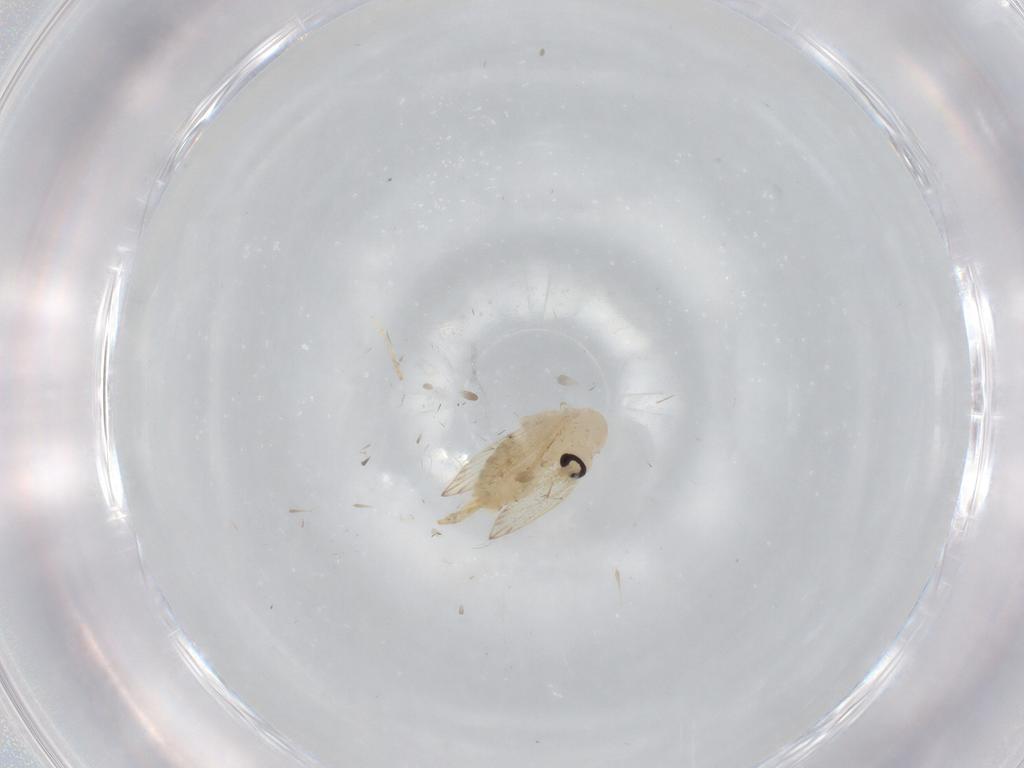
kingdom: Animalia
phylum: Arthropoda
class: Insecta
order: Diptera
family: Psychodidae
